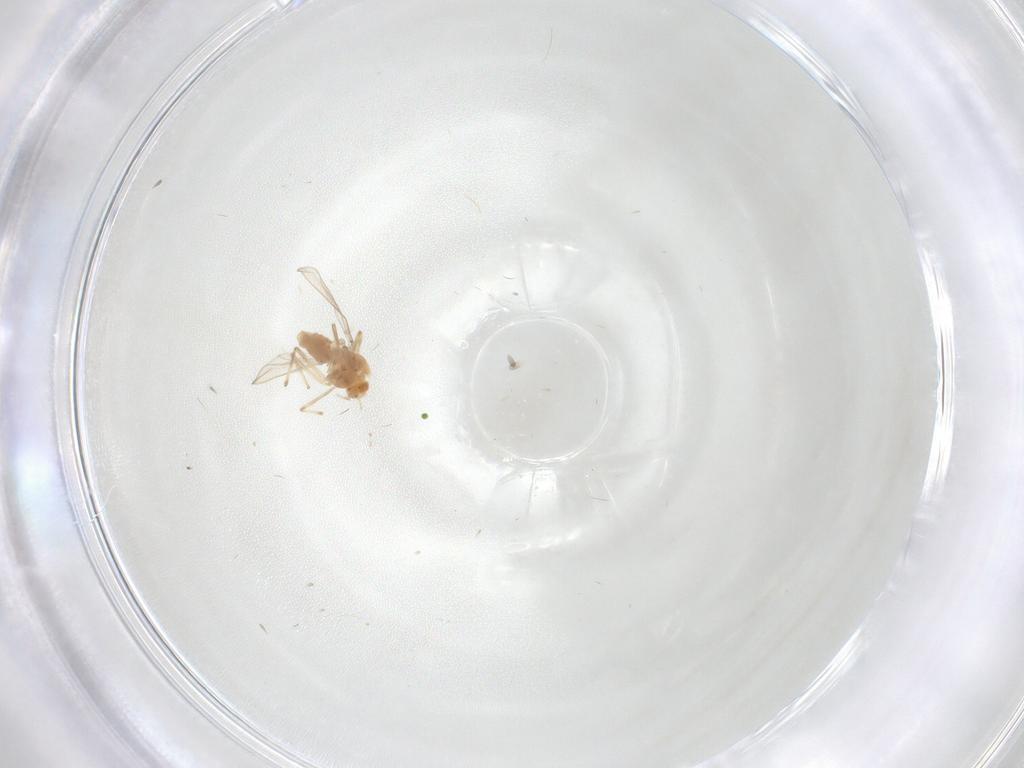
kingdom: Animalia
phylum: Arthropoda
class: Insecta
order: Diptera
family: Chironomidae
